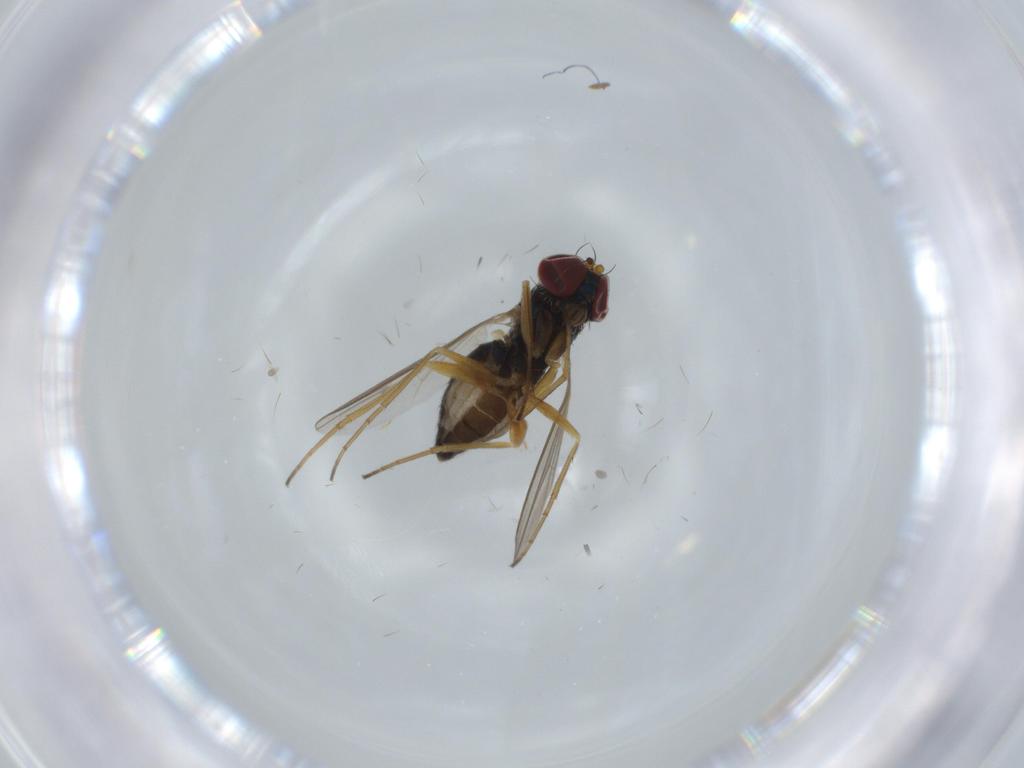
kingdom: Animalia
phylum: Arthropoda
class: Insecta
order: Diptera
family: Dolichopodidae
